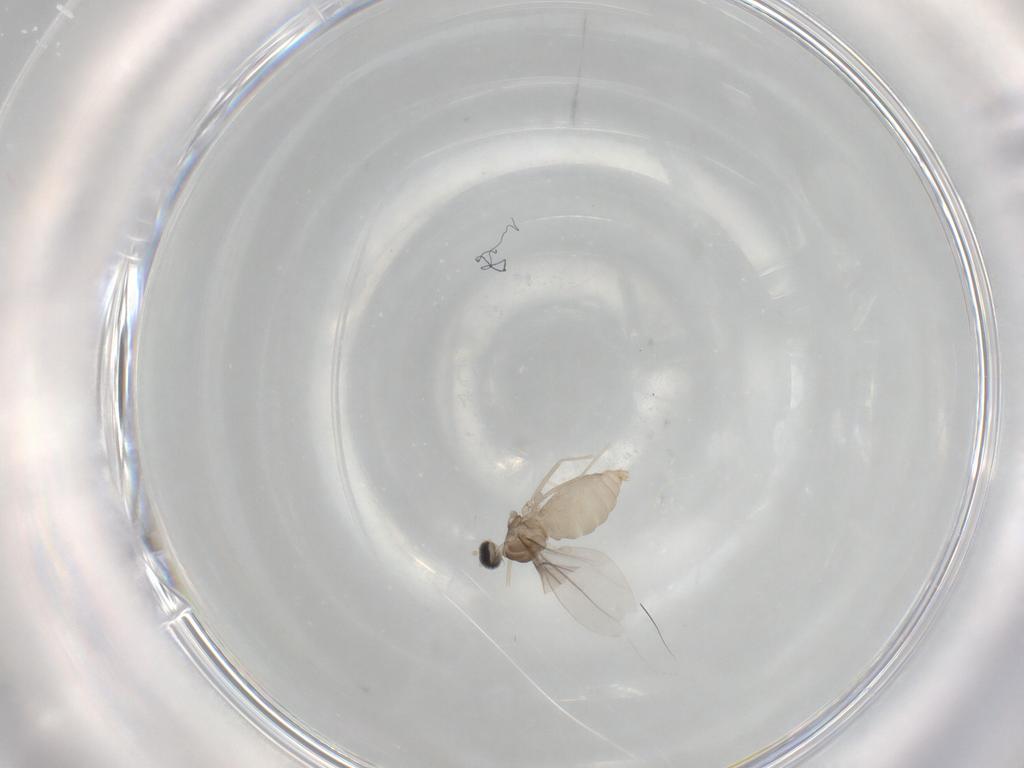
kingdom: Animalia
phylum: Arthropoda
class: Insecta
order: Diptera
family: Cecidomyiidae
